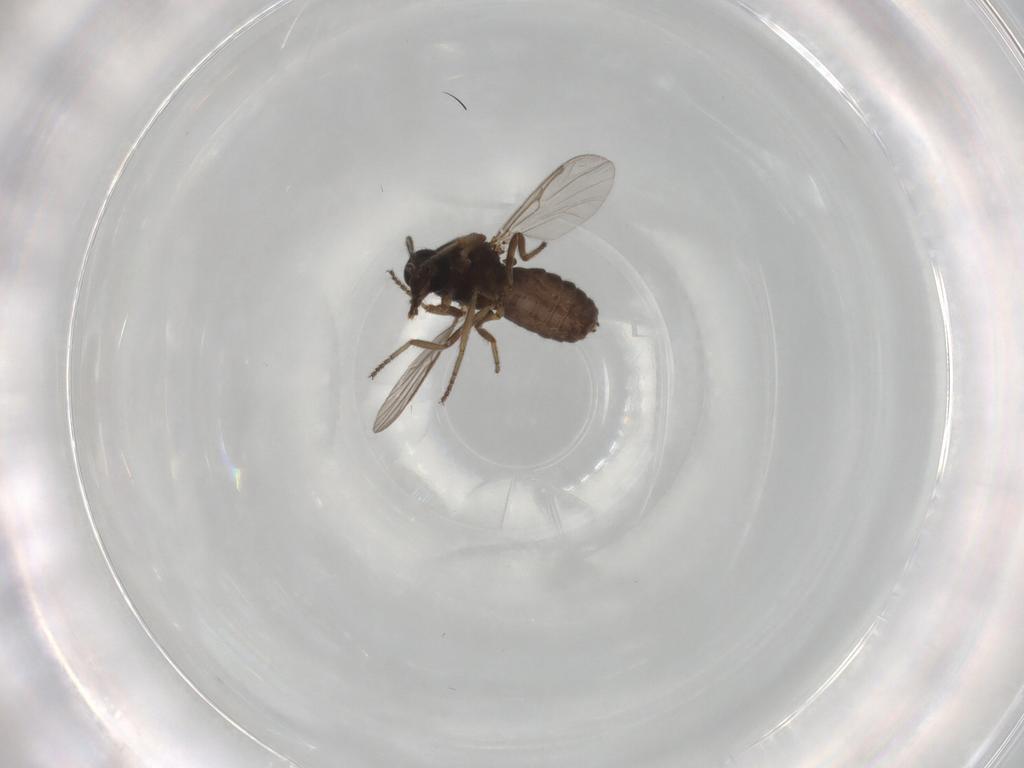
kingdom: Animalia
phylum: Arthropoda
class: Insecta
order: Diptera
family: Ceratopogonidae
